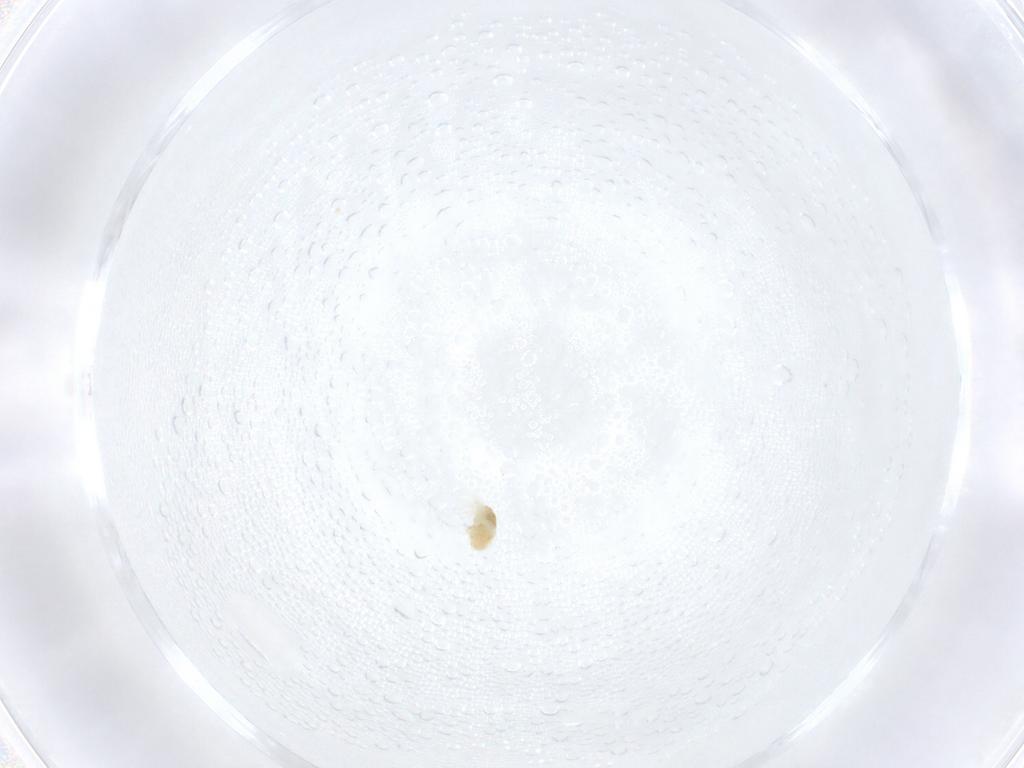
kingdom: Animalia
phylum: Arthropoda
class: Arachnida
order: Trombidiformes
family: Eupodidae
